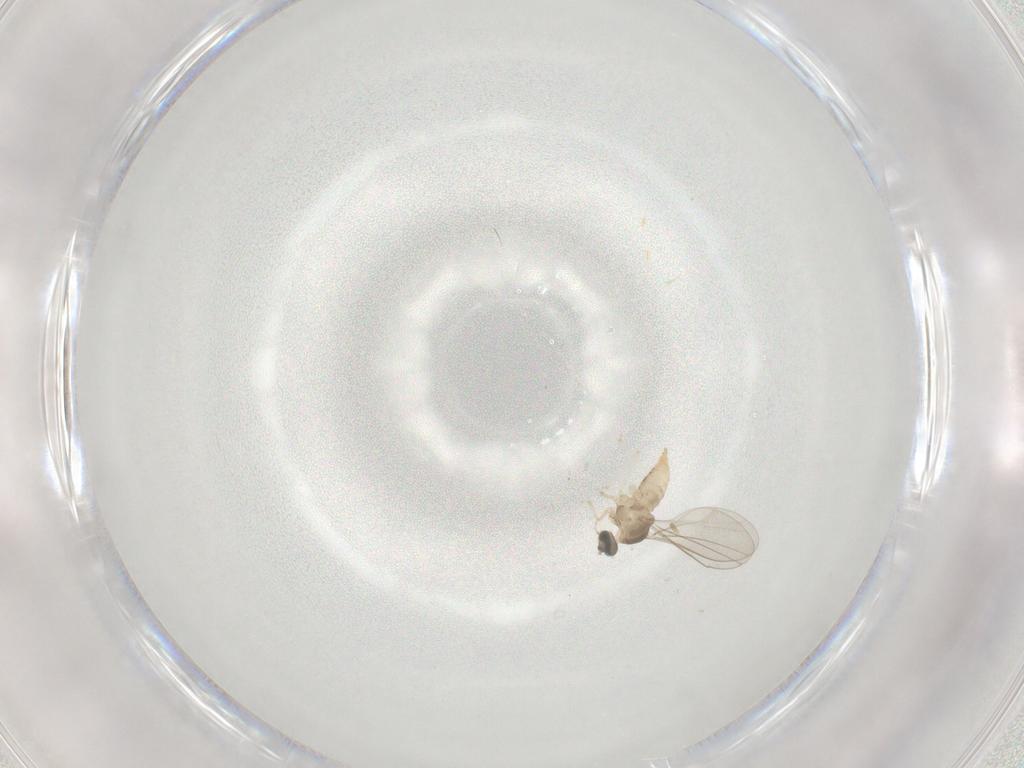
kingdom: Animalia
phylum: Arthropoda
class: Insecta
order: Diptera
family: Cecidomyiidae
